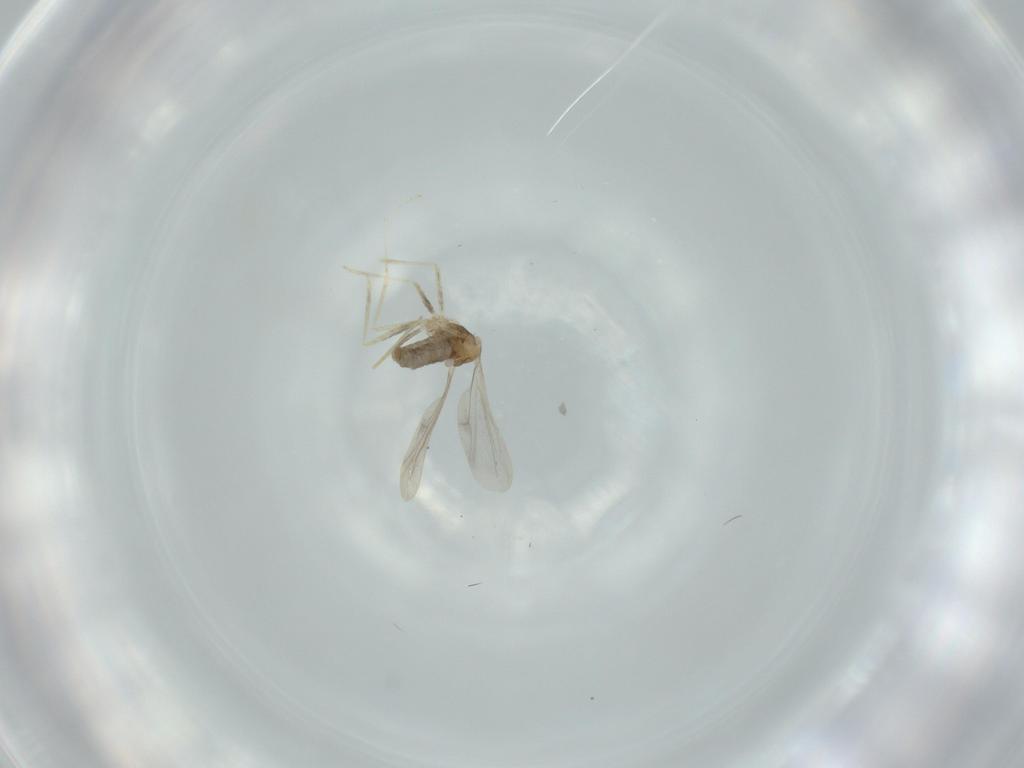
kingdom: Animalia
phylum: Arthropoda
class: Insecta
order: Diptera
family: Cecidomyiidae
